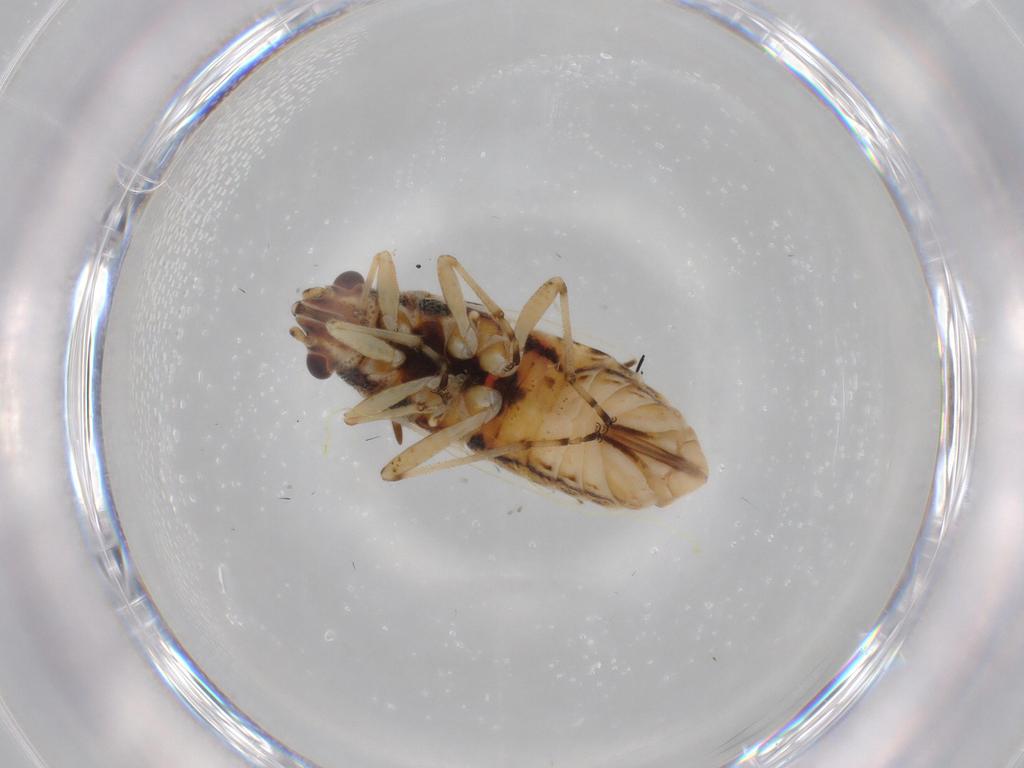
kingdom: Animalia
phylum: Arthropoda
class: Insecta
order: Hemiptera
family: Lygaeidae
